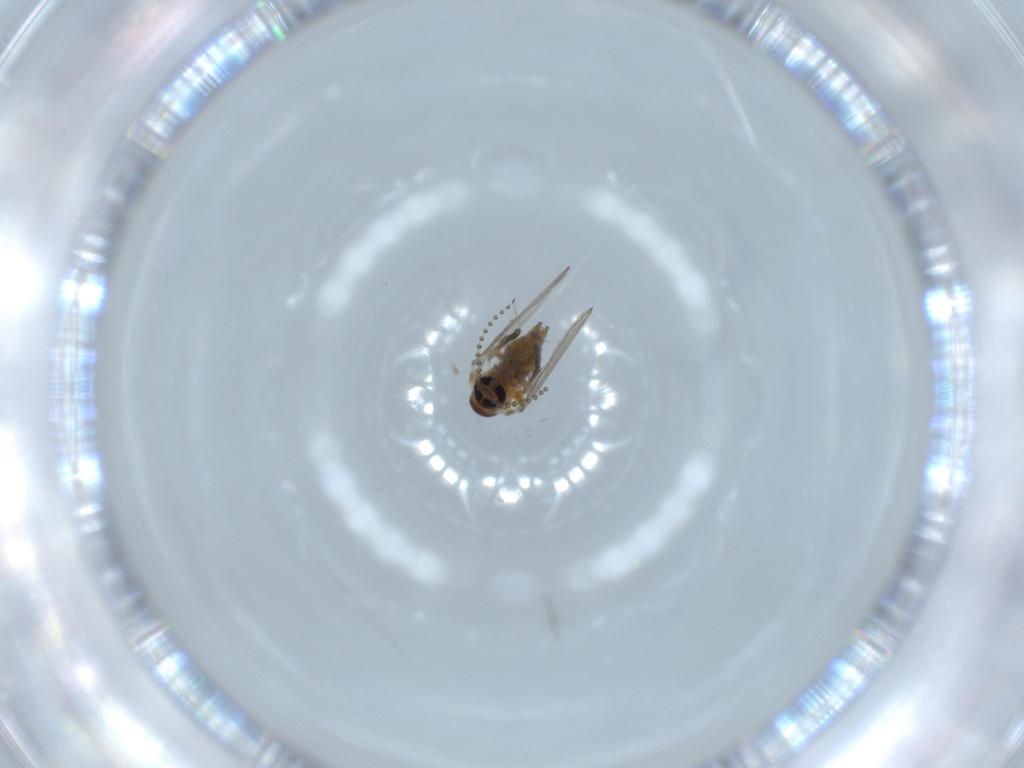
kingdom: Animalia
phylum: Arthropoda
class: Insecta
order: Diptera
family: Psychodidae
